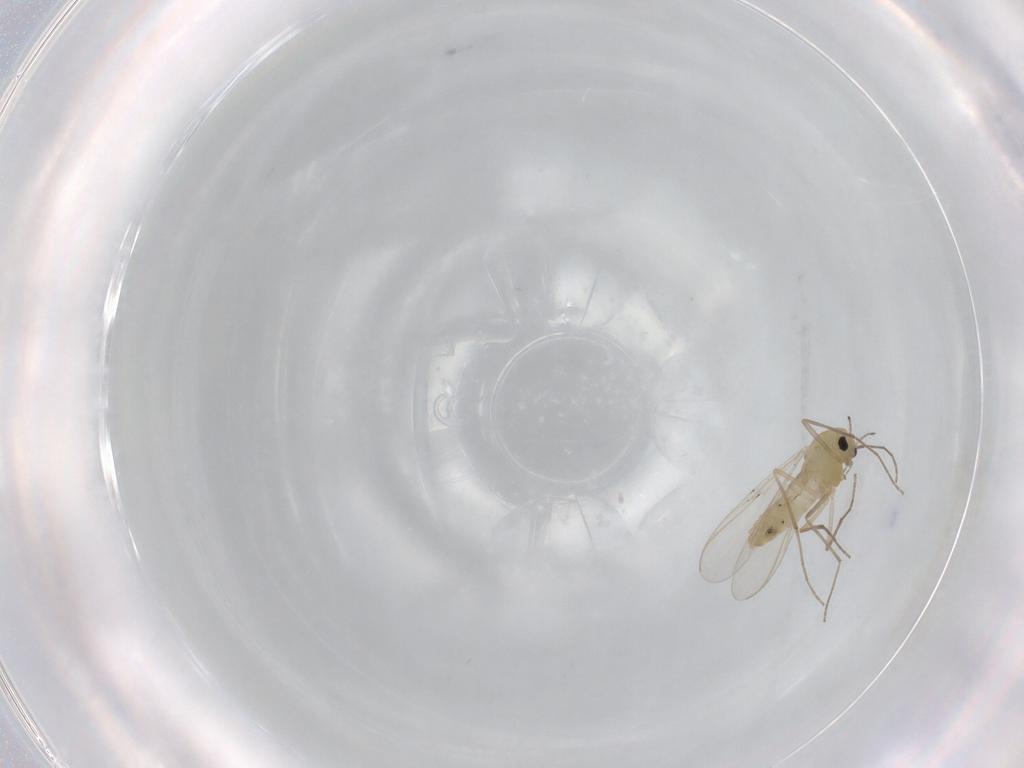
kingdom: Animalia
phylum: Arthropoda
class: Insecta
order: Diptera
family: Chironomidae
